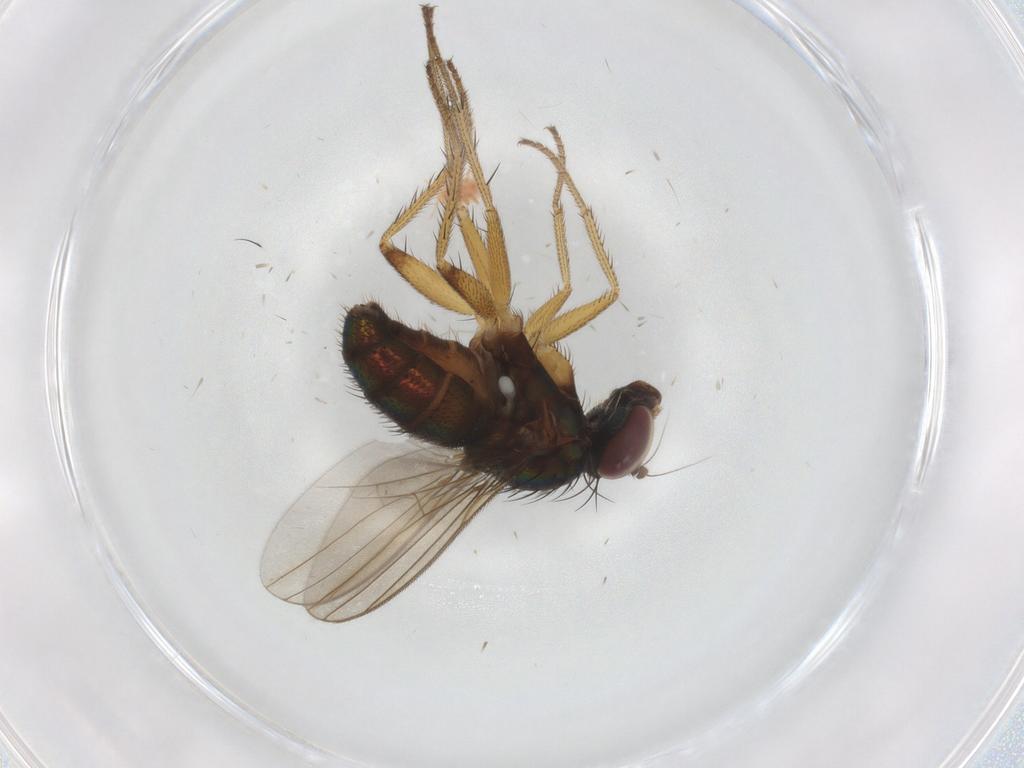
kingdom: Animalia
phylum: Arthropoda
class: Insecta
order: Diptera
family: Dolichopodidae
